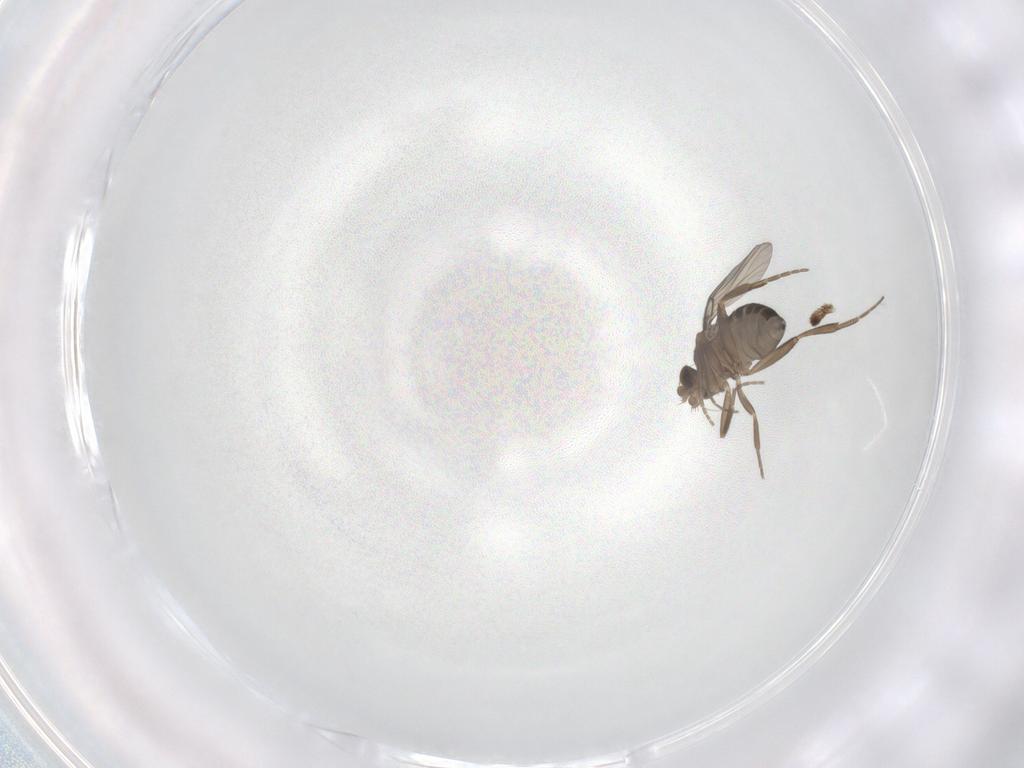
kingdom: Animalia
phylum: Arthropoda
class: Insecta
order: Diptera
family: Phoridae
